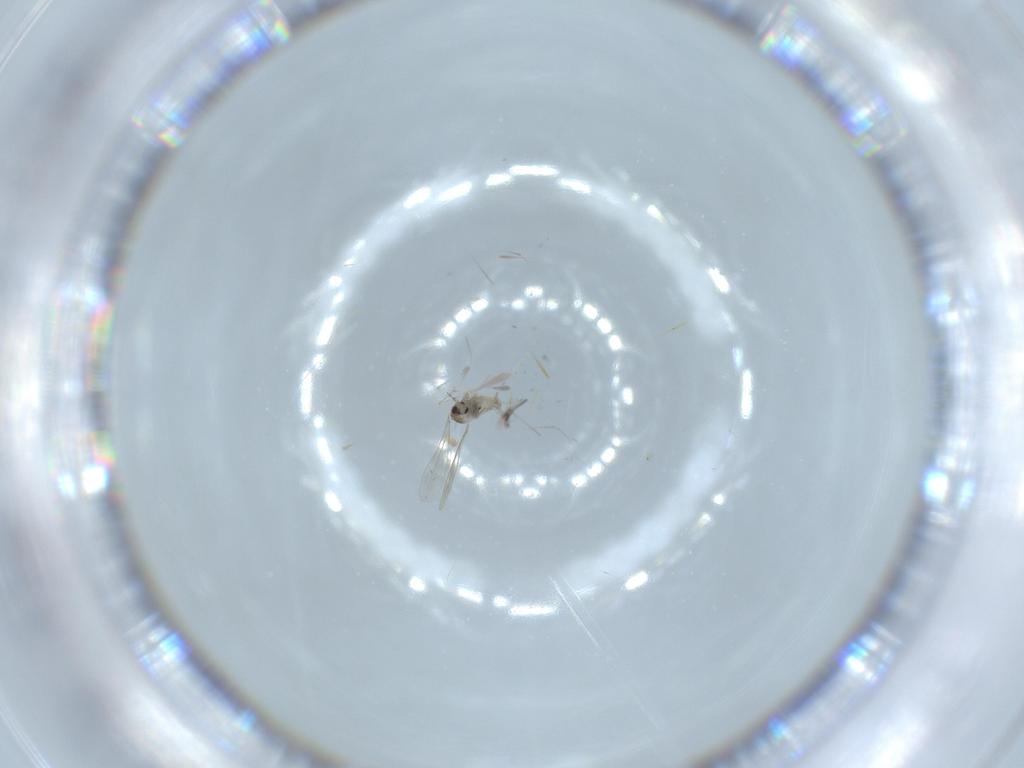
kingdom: Animalia
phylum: Arthropoda
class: Insecta
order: Diptera
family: Cecidomyiidae
